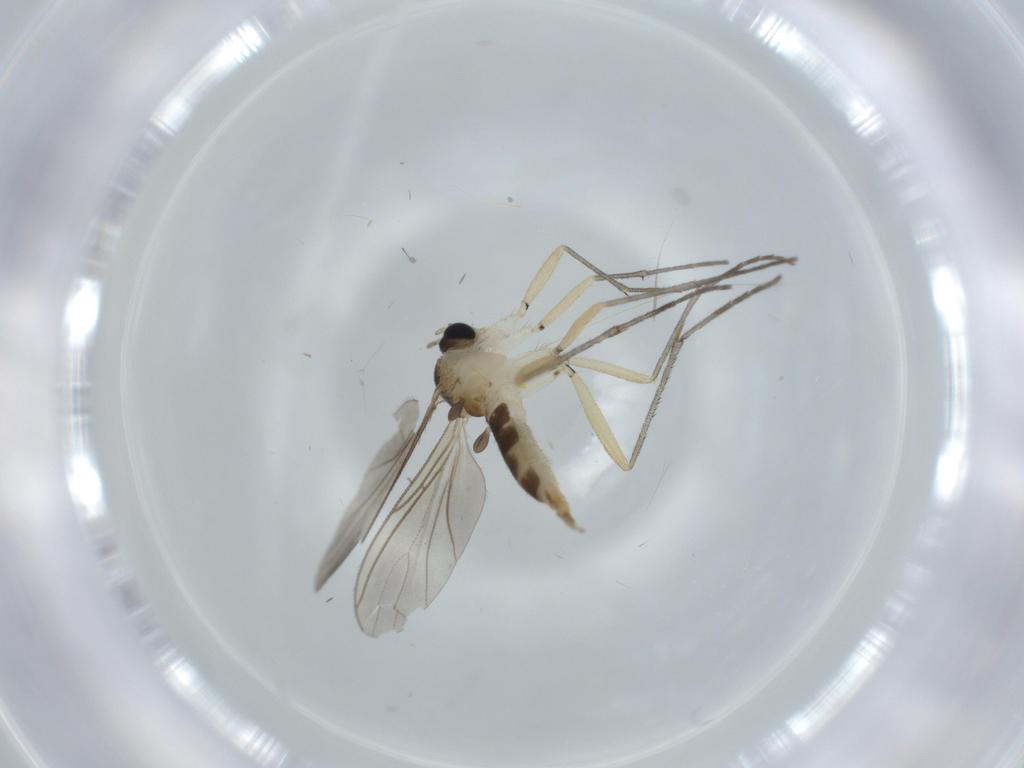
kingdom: Animalia
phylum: Arthropoda
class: Insecta
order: Diptera
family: Sciaridae
